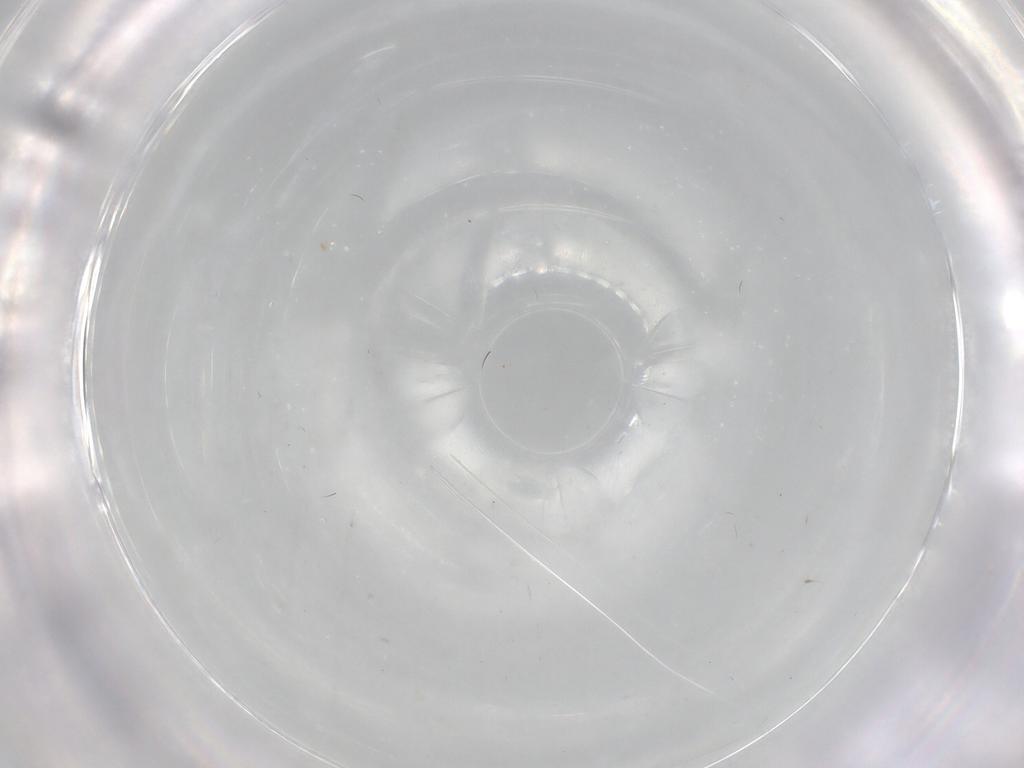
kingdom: Animalia
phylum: Arthropoda
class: Insecta
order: Diptera
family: Cecidomyiidae
